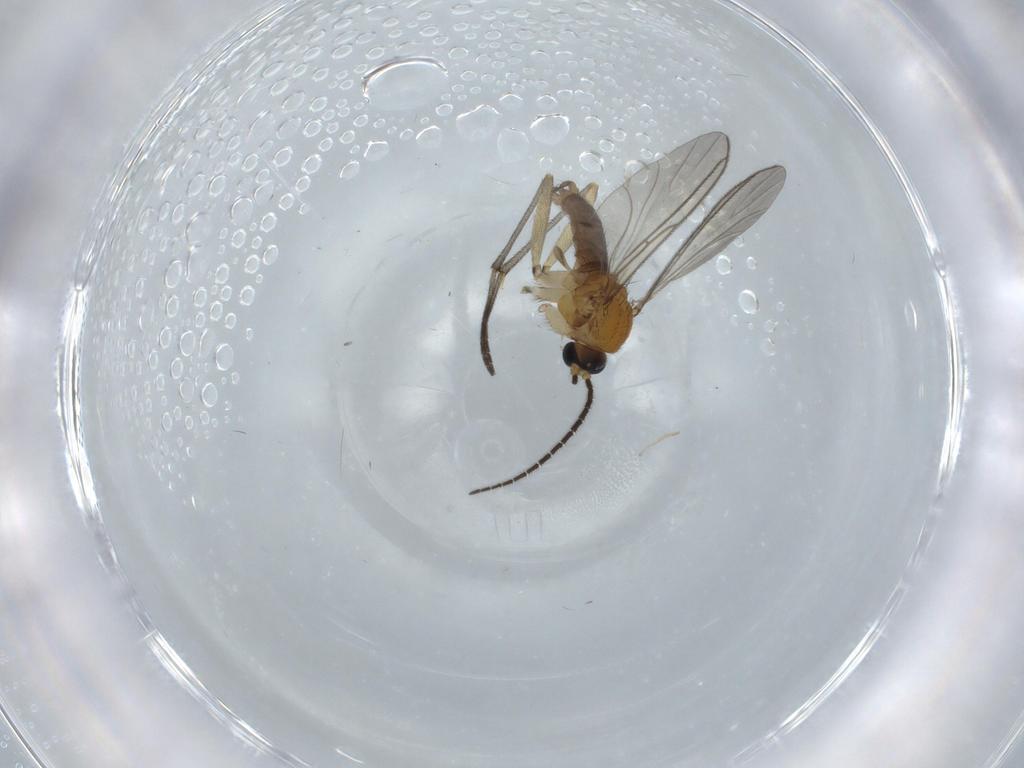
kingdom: Animalia
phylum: Arthropoda
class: Insecta
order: Diptera
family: Sciaridae
